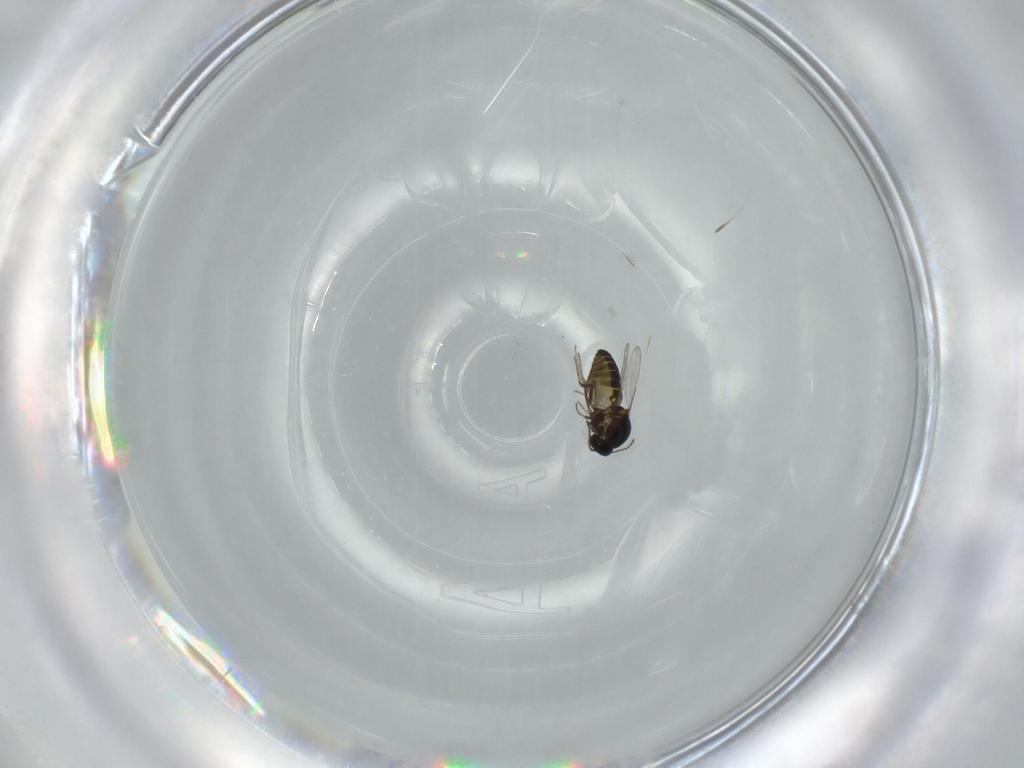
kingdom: Animalia
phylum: Arthropoda
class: Insecta
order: Diptera
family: Ceratopogonidae
